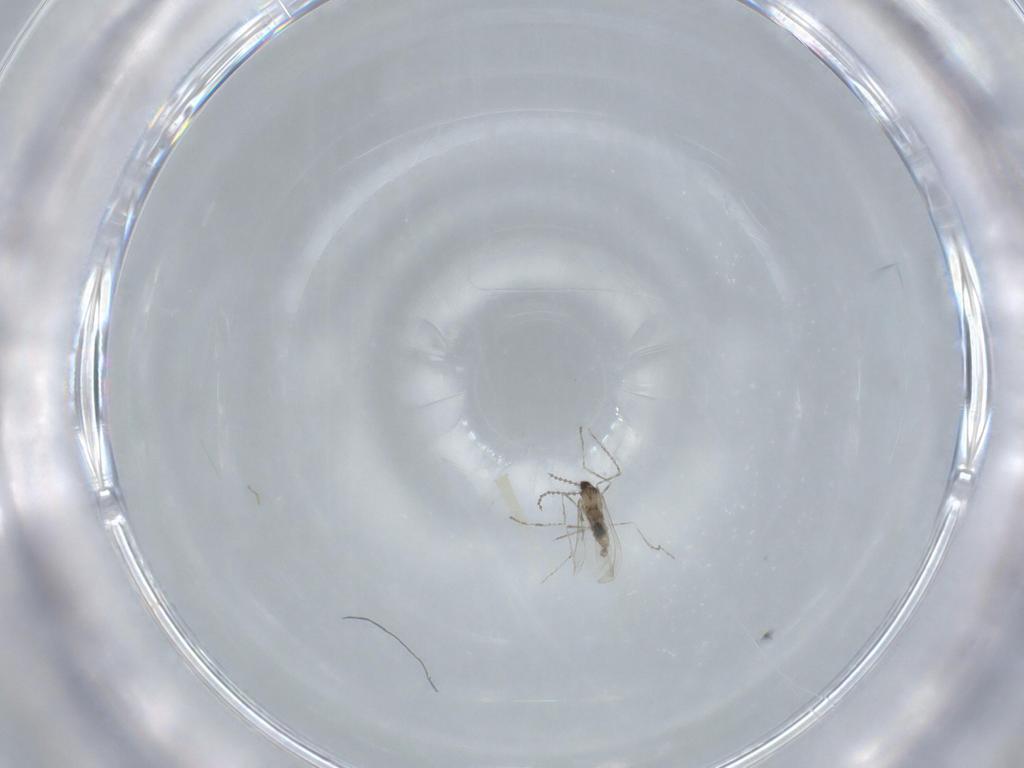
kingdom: Animalia
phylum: Arthropoda
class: Insecta
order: Diptera
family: Cecidomyiidae
